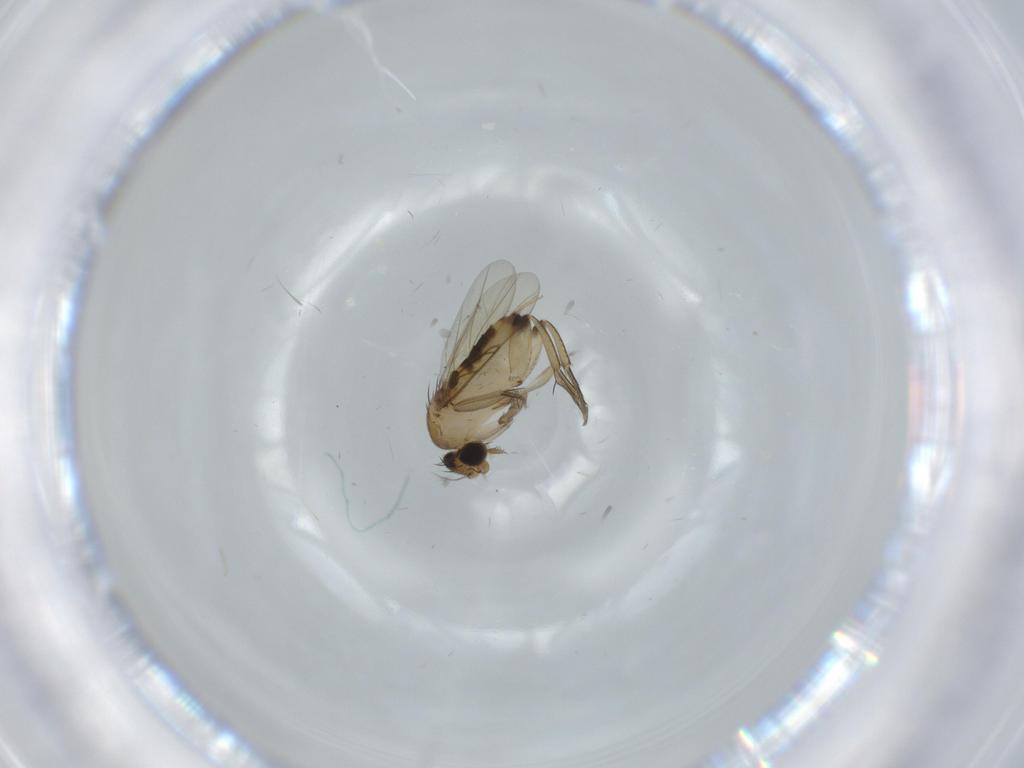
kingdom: Animalia
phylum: Arthropoda
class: Insecta
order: Diptera
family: Phoridae
